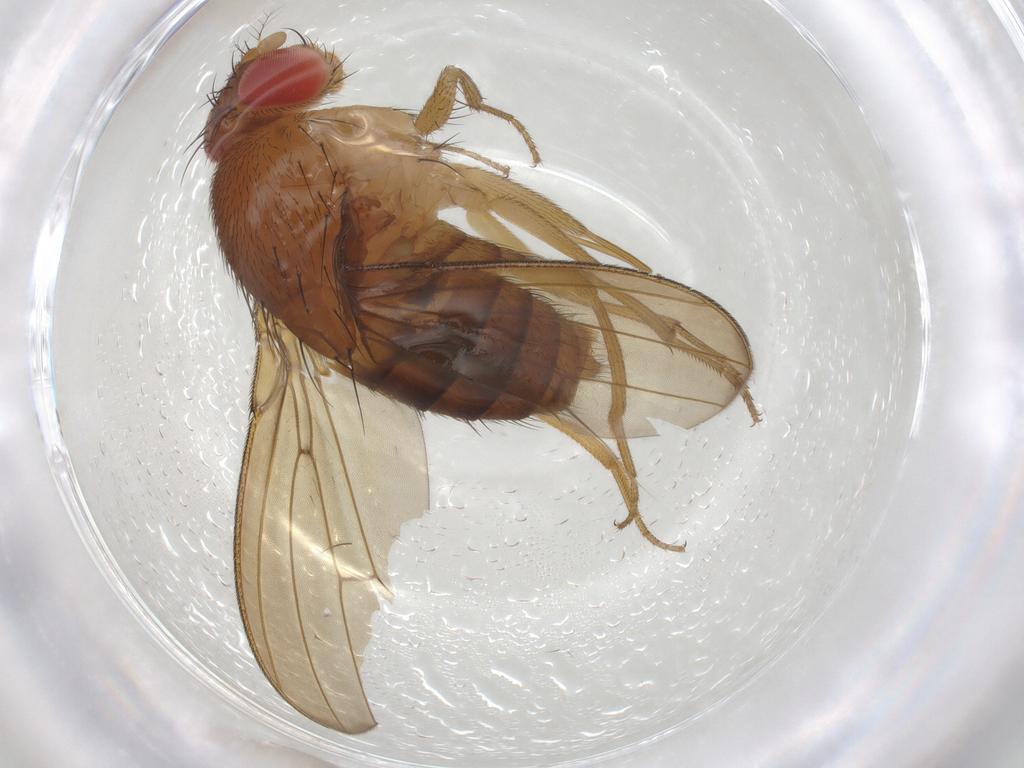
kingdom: Animalia
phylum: Arthropoda
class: Insecta
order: Diptera
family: Drosophilidae
